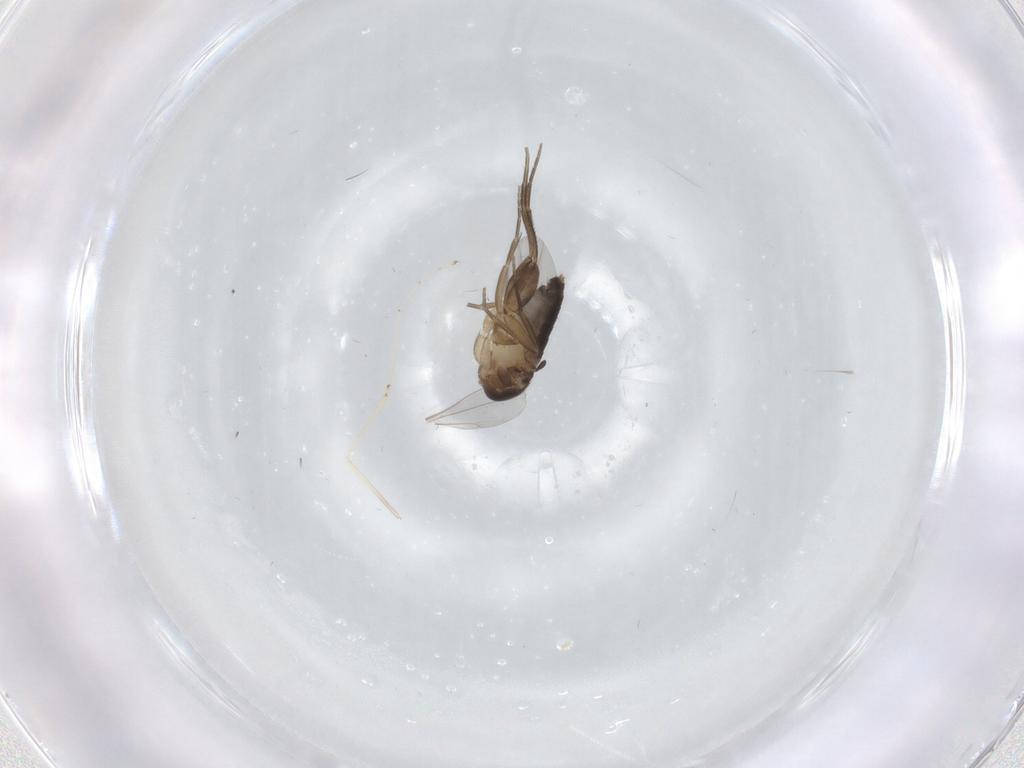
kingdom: Animalia
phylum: Arthropoda
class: Insecta
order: Diptera
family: Phoridae
